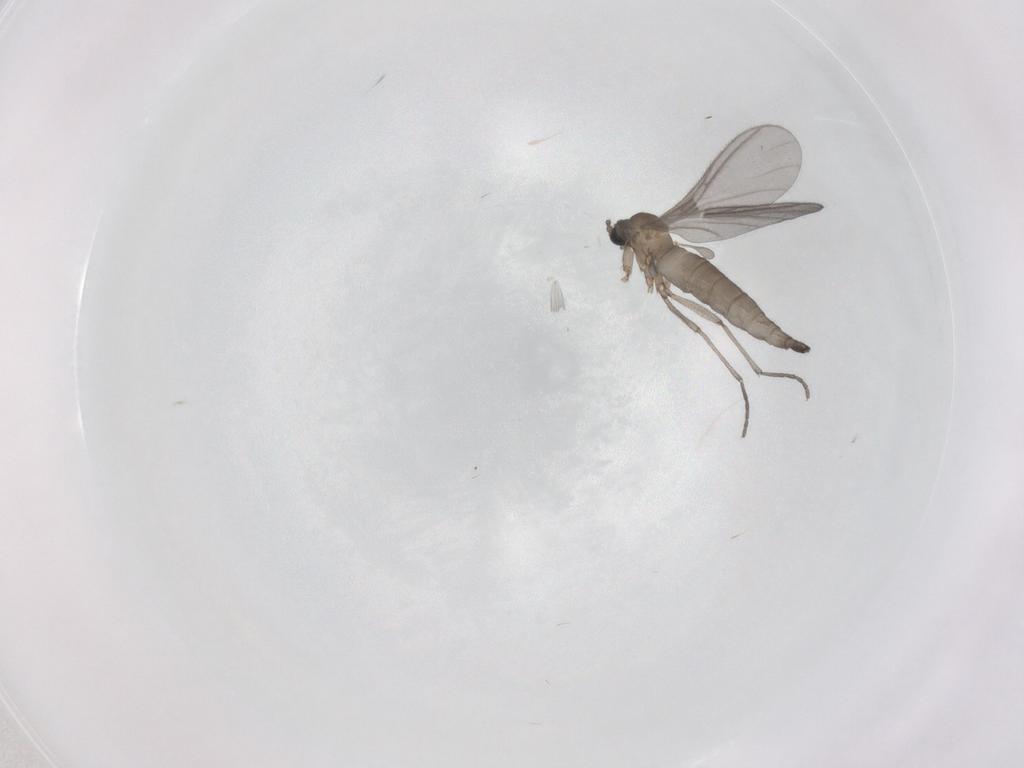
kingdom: Animalia
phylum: Arthropoda
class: Insecta
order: Diptera
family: Sciaridae
